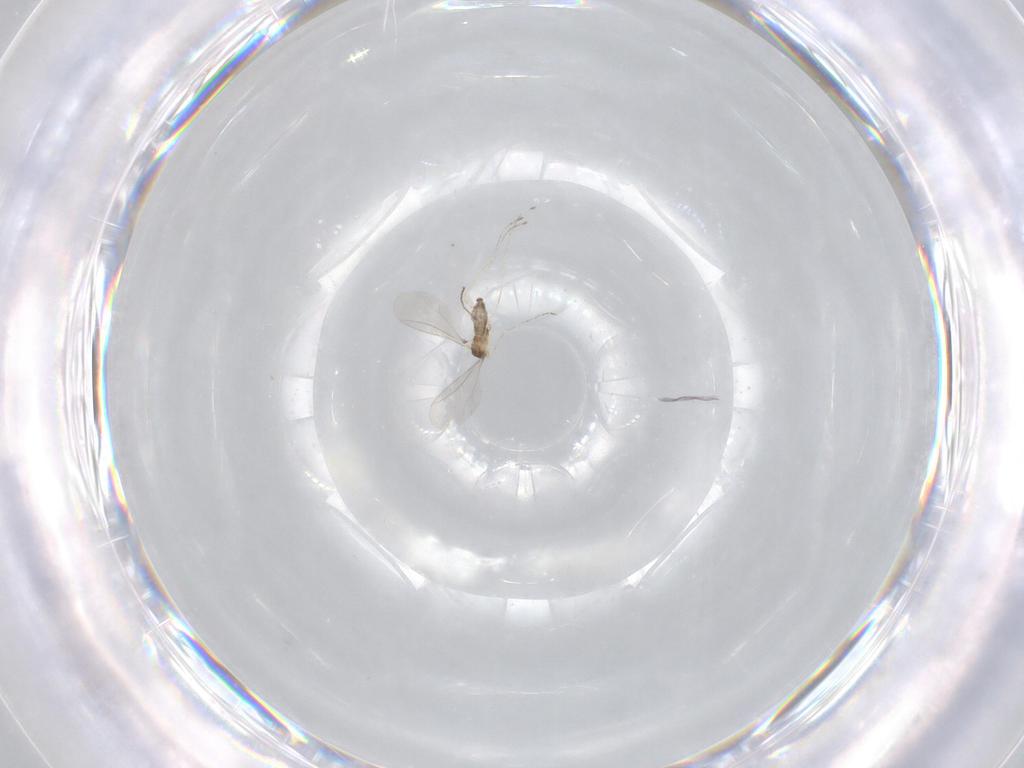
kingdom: Animalia
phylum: Arthropoda
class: Insecta
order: Diptera
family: Cecidomyiidae
